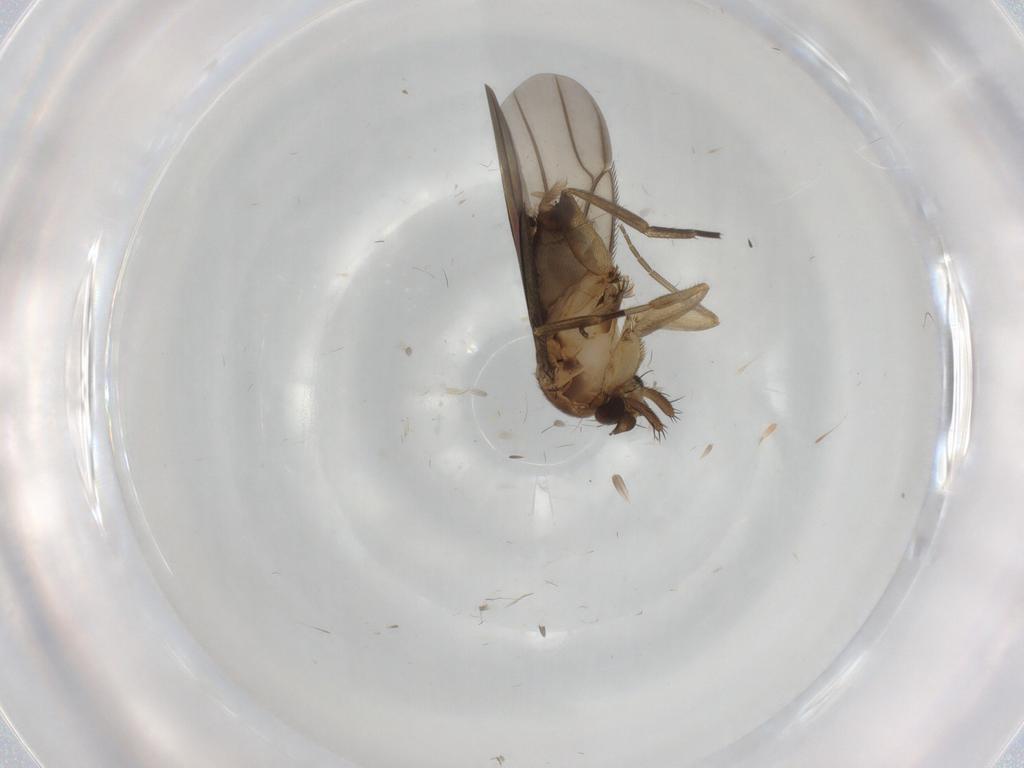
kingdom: Animalia
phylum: Arthropoda
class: Insecta
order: Diptera
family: Phoridae
